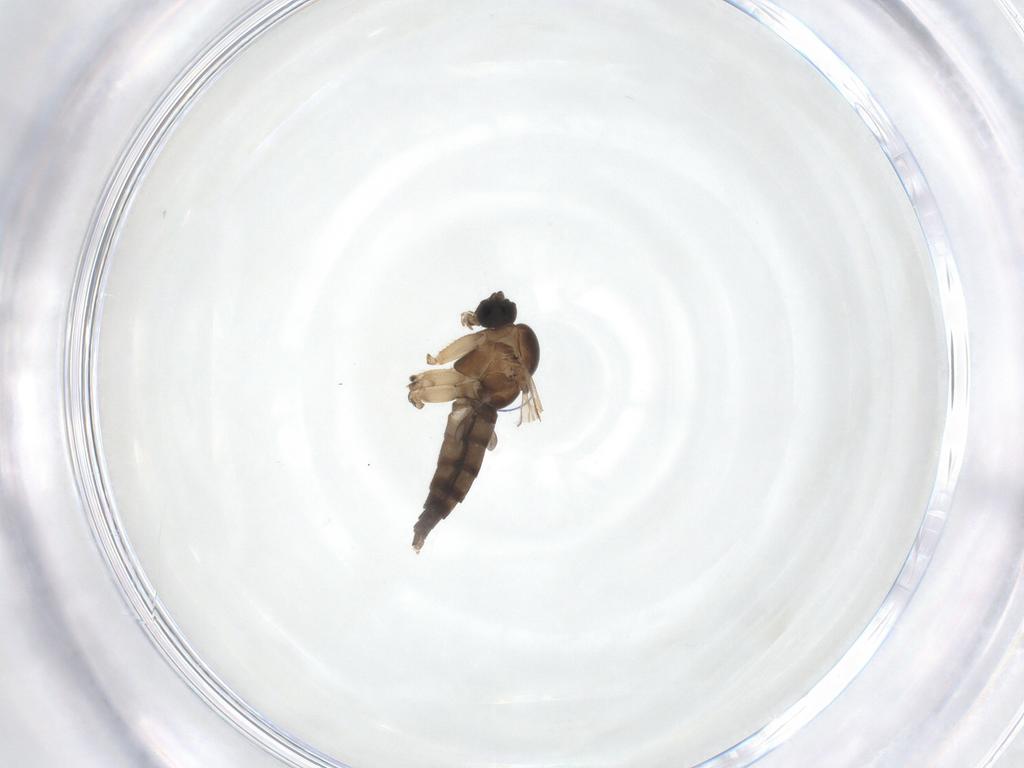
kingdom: Animalia
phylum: Arthropoda
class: Insecta
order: Diptera
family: Sciaridae
